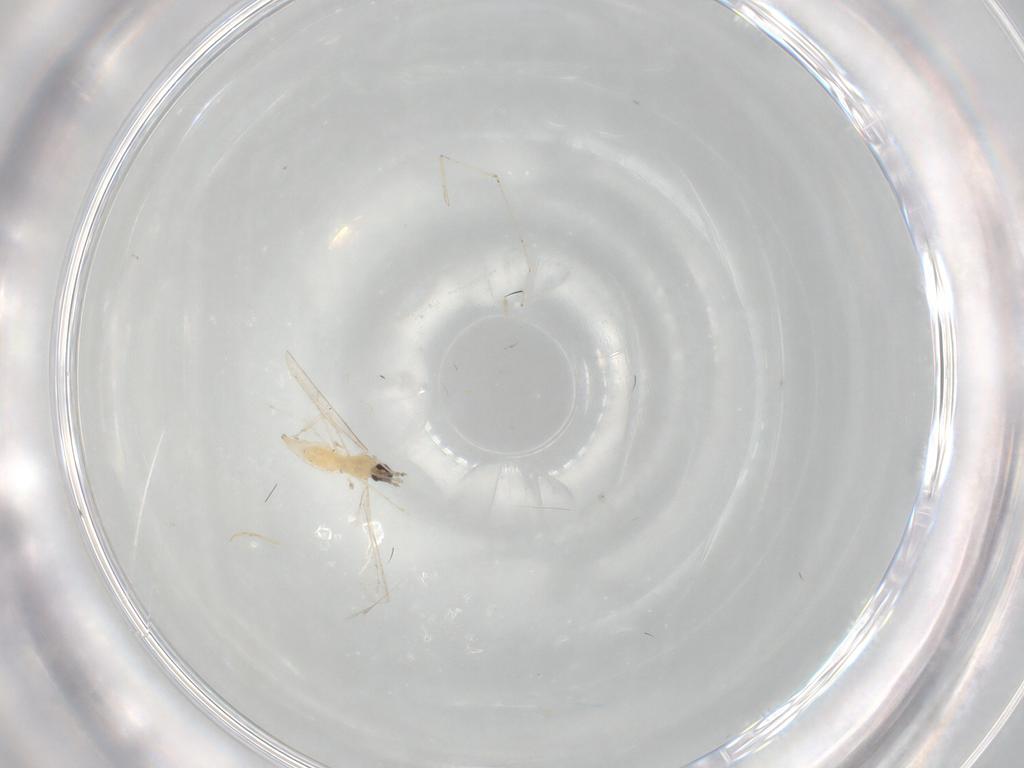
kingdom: Animalia
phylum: Arthropoda
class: Insecta
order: Diptera
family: Cecidomyiidae
